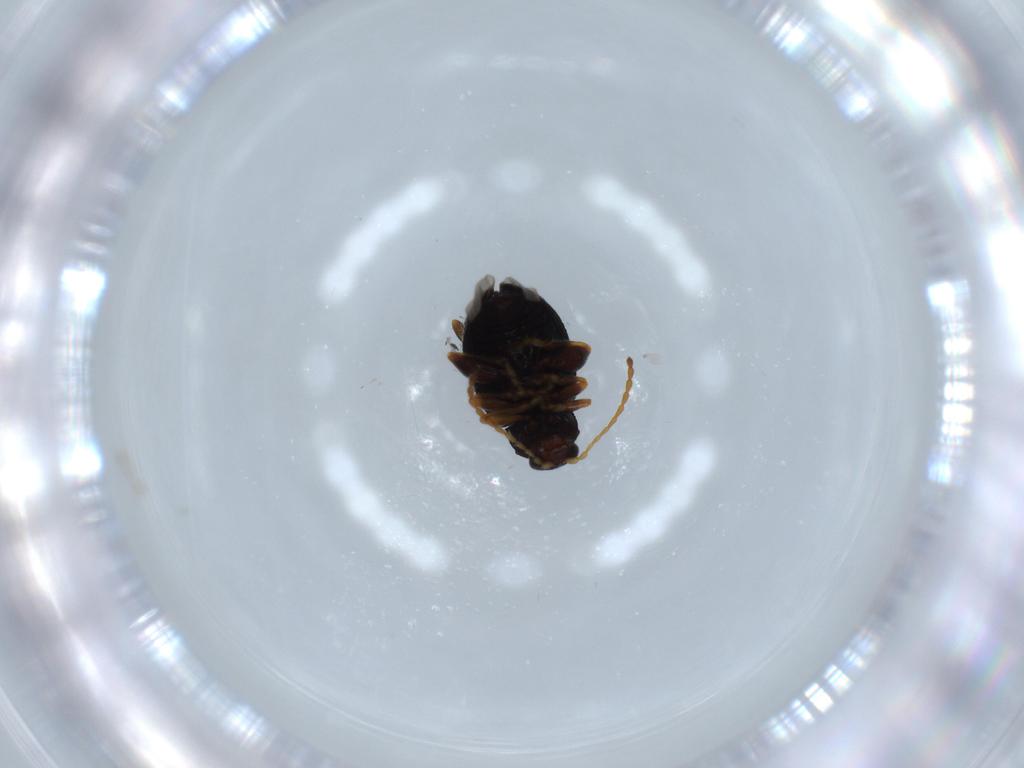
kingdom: Animalia
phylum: Arthropoda
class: Insecta
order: Coleoptera
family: Chrysomelidae
